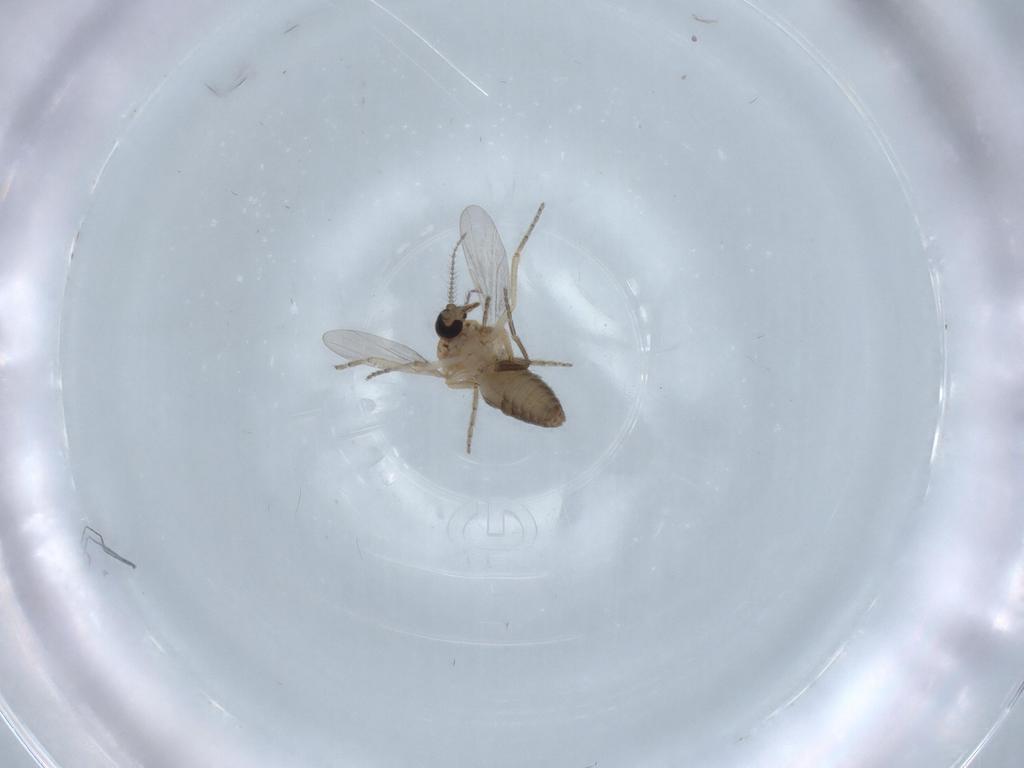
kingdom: Animalia
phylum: Arthropoda
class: Insecta
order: Diptera
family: Ceratopogonidae
